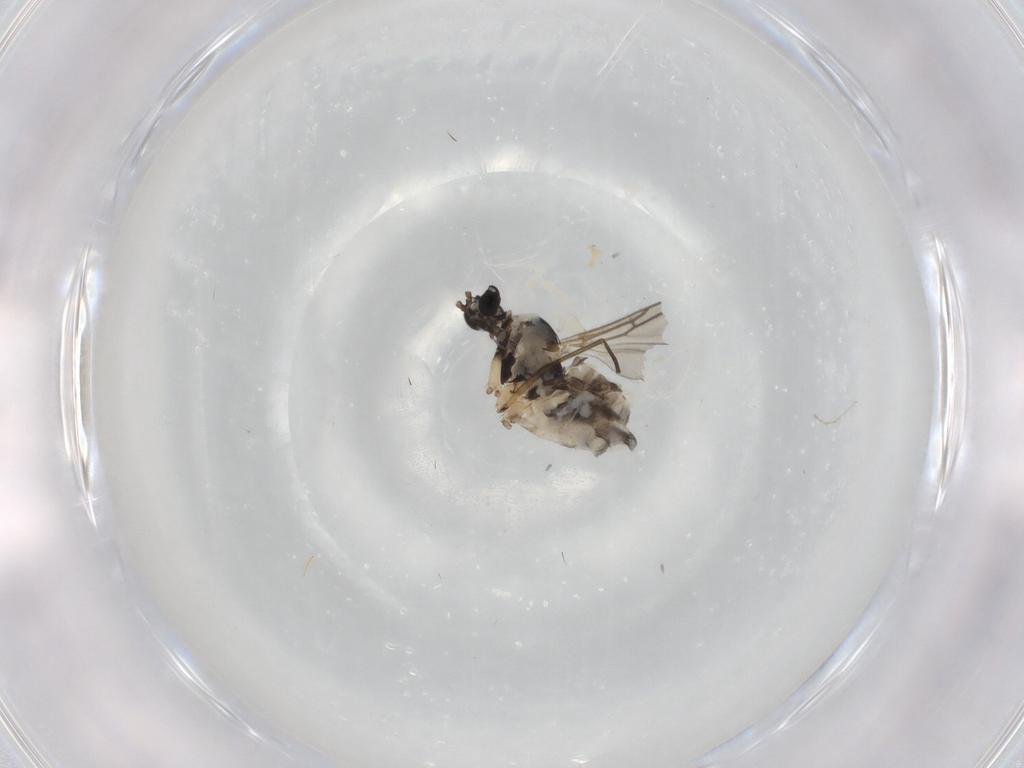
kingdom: Animalia
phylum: Arthropoda
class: Insecta
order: Diptera
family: Sciaridae
